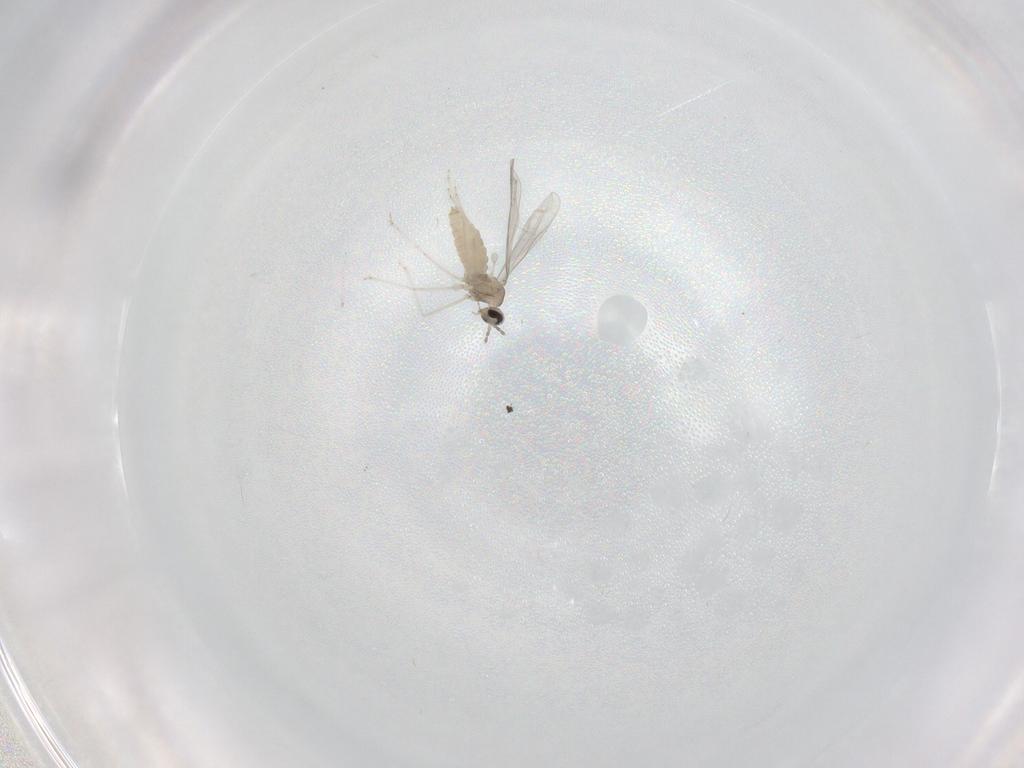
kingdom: Animalia
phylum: Arthropoda
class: Insecta
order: Diptera
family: Cecidomyiidae
